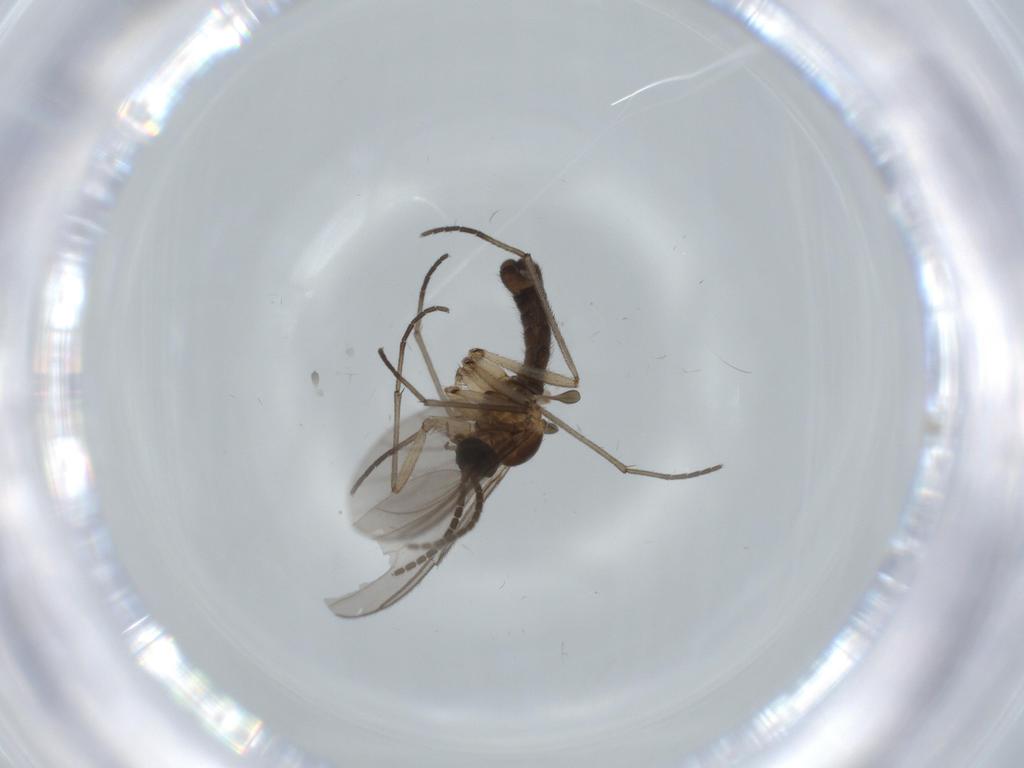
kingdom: Animalia
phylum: Arthropoda
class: Insecta
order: Diptera
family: Sciaridae
